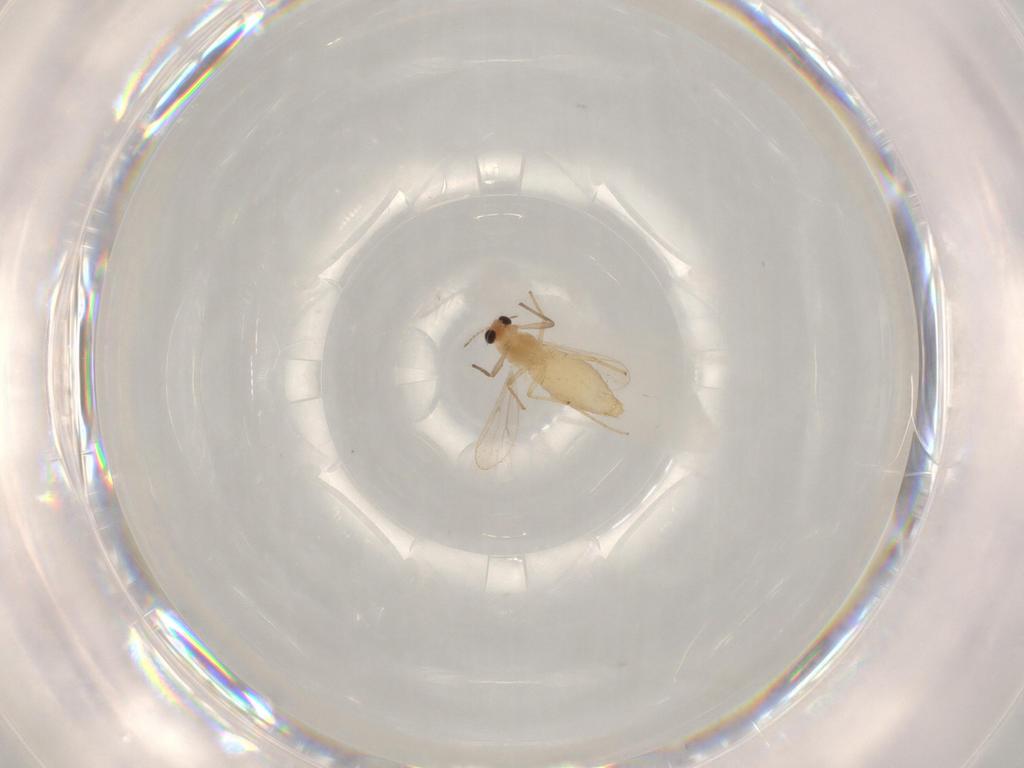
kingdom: Animalia
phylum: Arthropoda
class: Insecta
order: Diptera
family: Chironomidae
